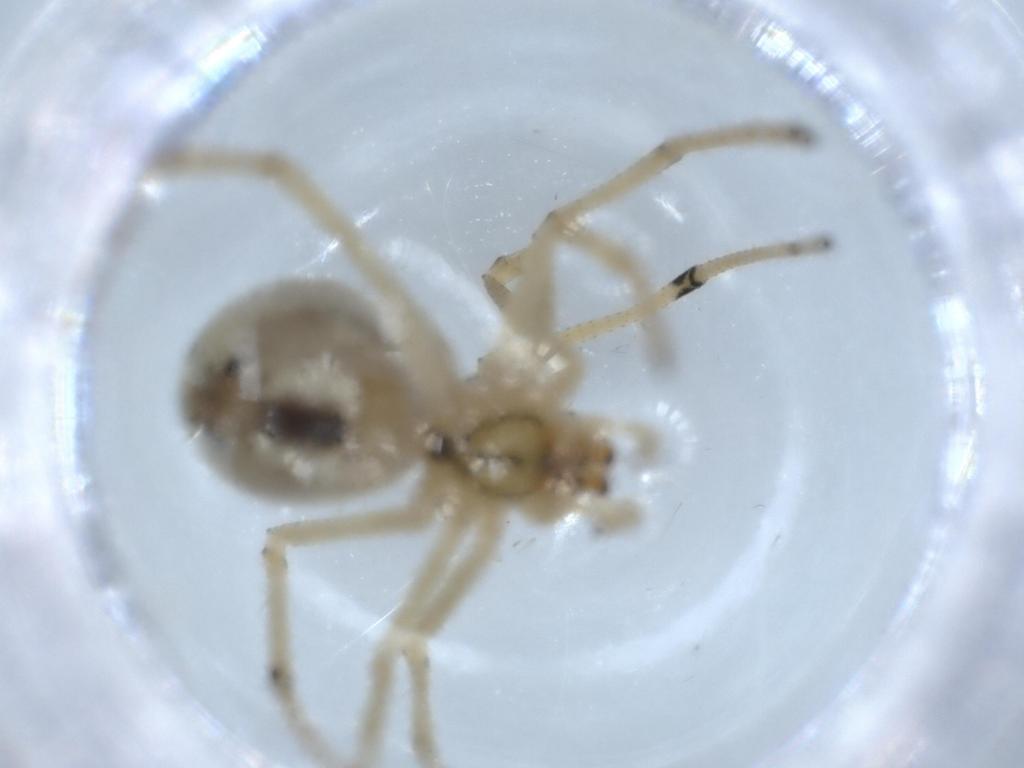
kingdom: Animalia
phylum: Arthropoda
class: Arachnida
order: Araneae
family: Theridiidae
